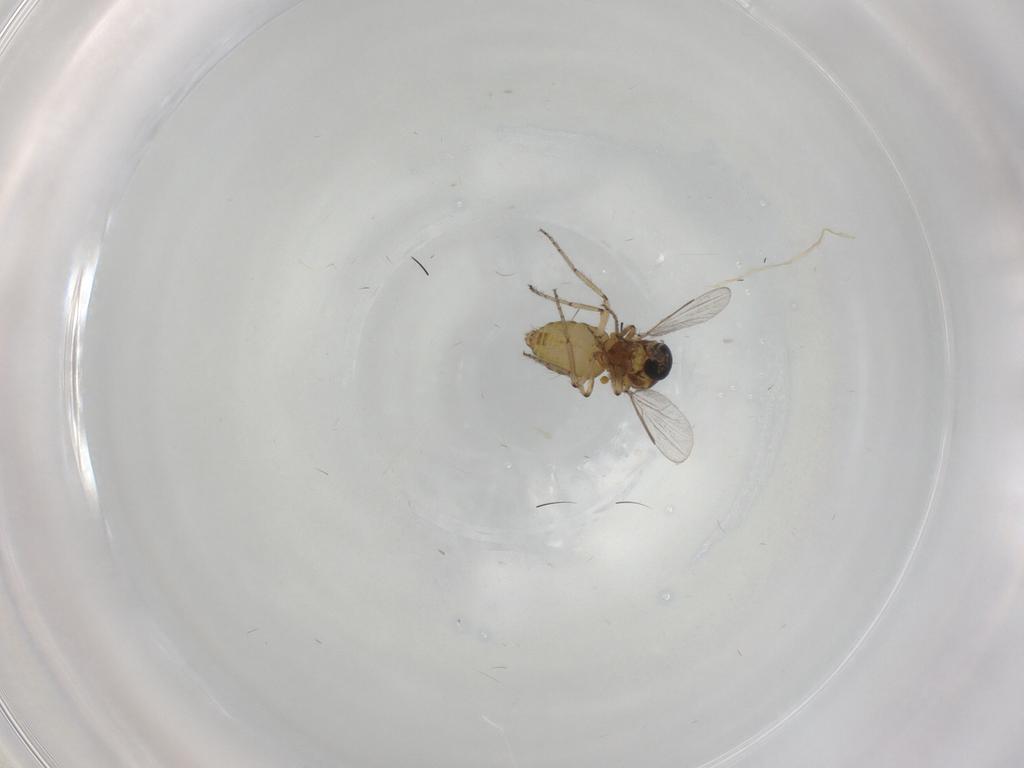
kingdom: Animalia
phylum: Arthropoda
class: Insecta
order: Diptera
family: Ceratopogonidae
